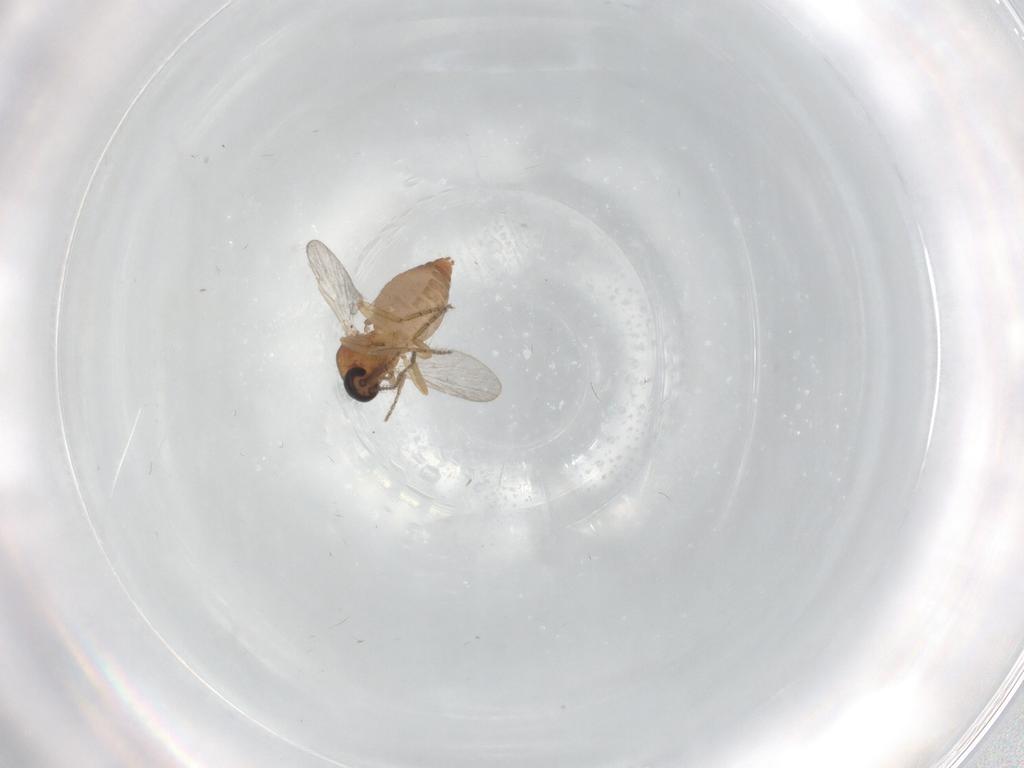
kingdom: Animalia
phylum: Arthropoda
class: Insecta
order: Diptera
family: Ceratopogonidae
